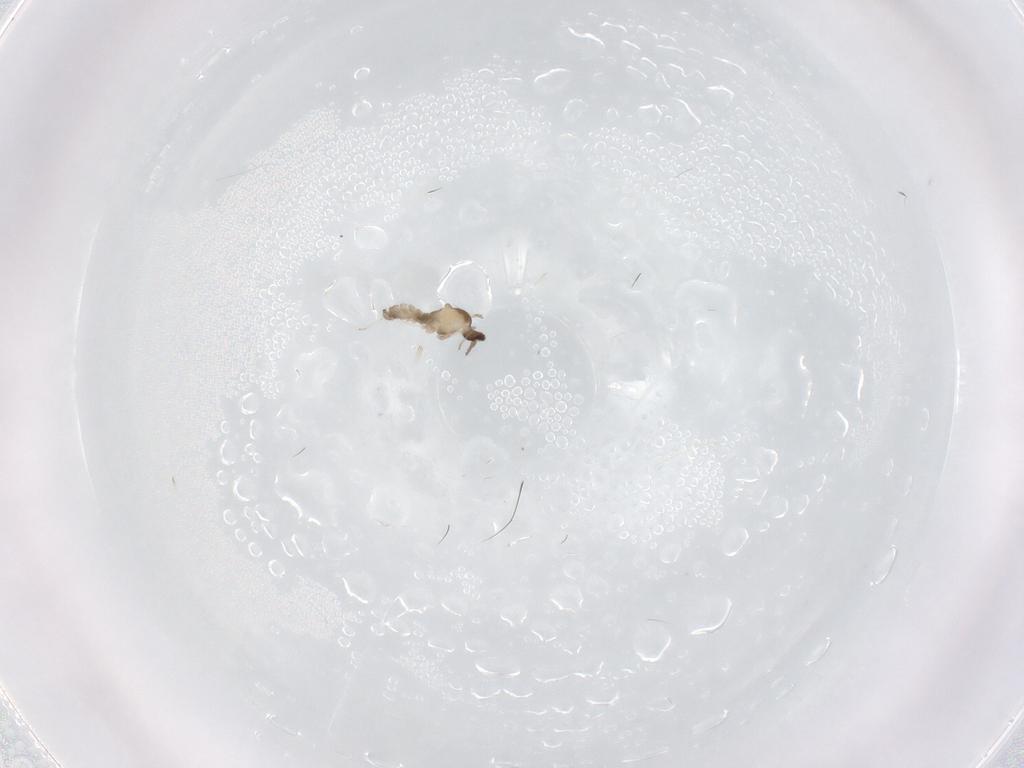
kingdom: Animalia
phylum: Arthropoda
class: Insecta
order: Diptera
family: Cecidomyiidae
